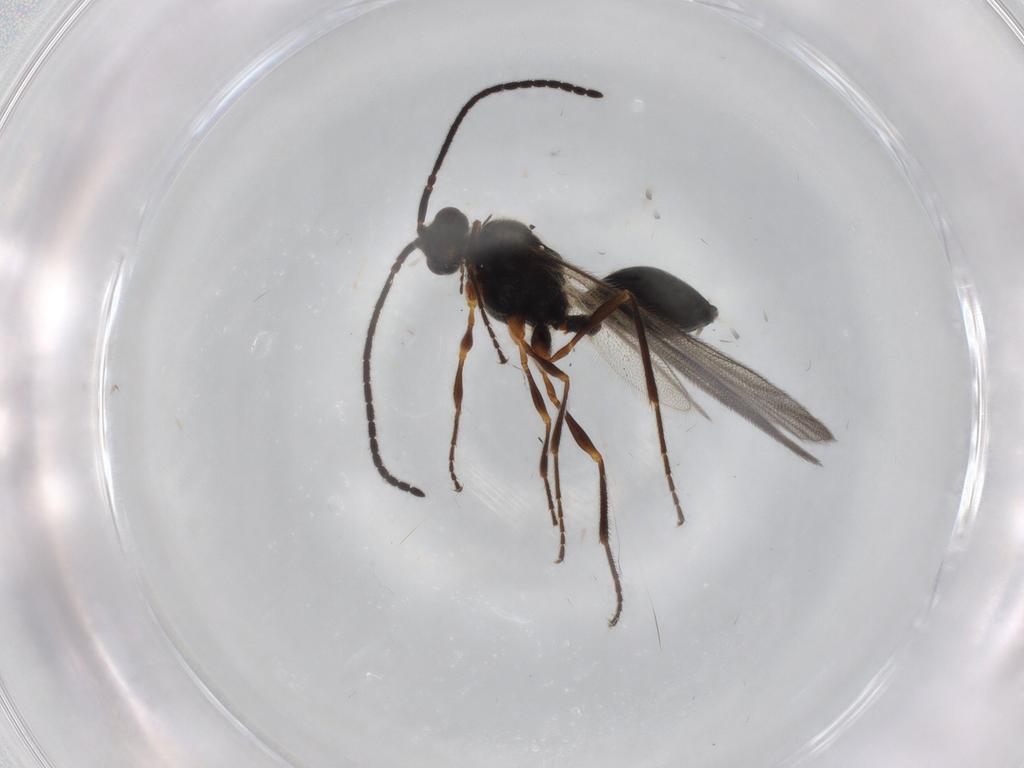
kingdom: Animalia
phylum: Arthropoda
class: Insecta
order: Hymenoptera
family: Diapriidae
